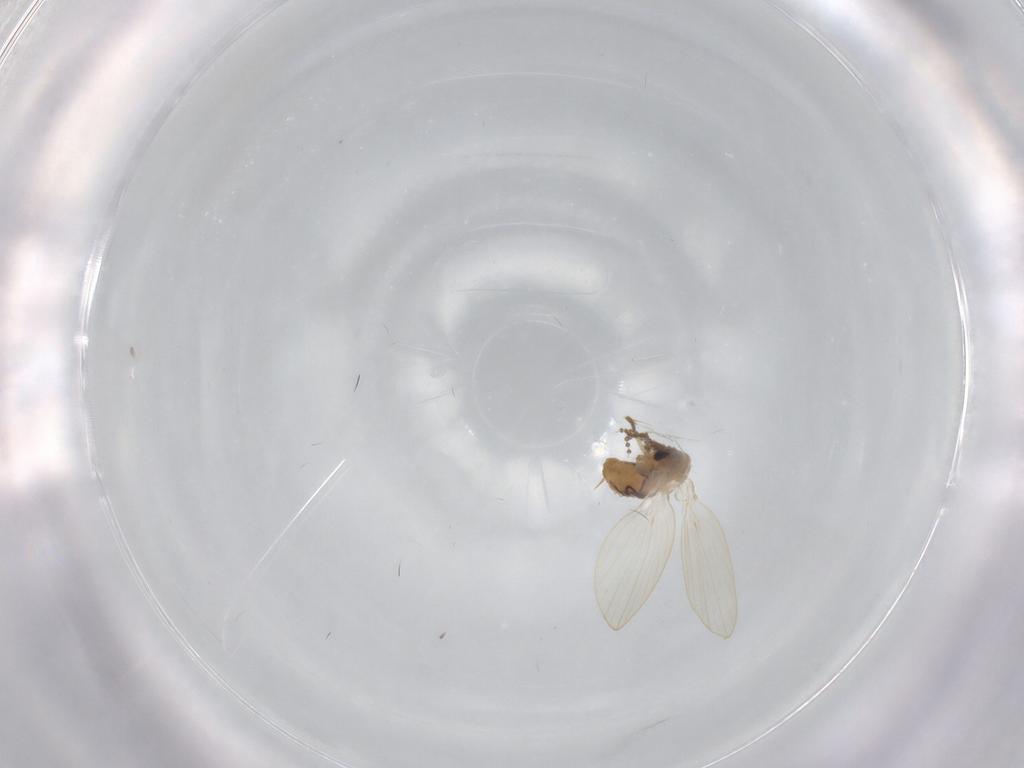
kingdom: Animalia
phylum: Arthropoda
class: Insecta
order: Diptera
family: Psychodidae
